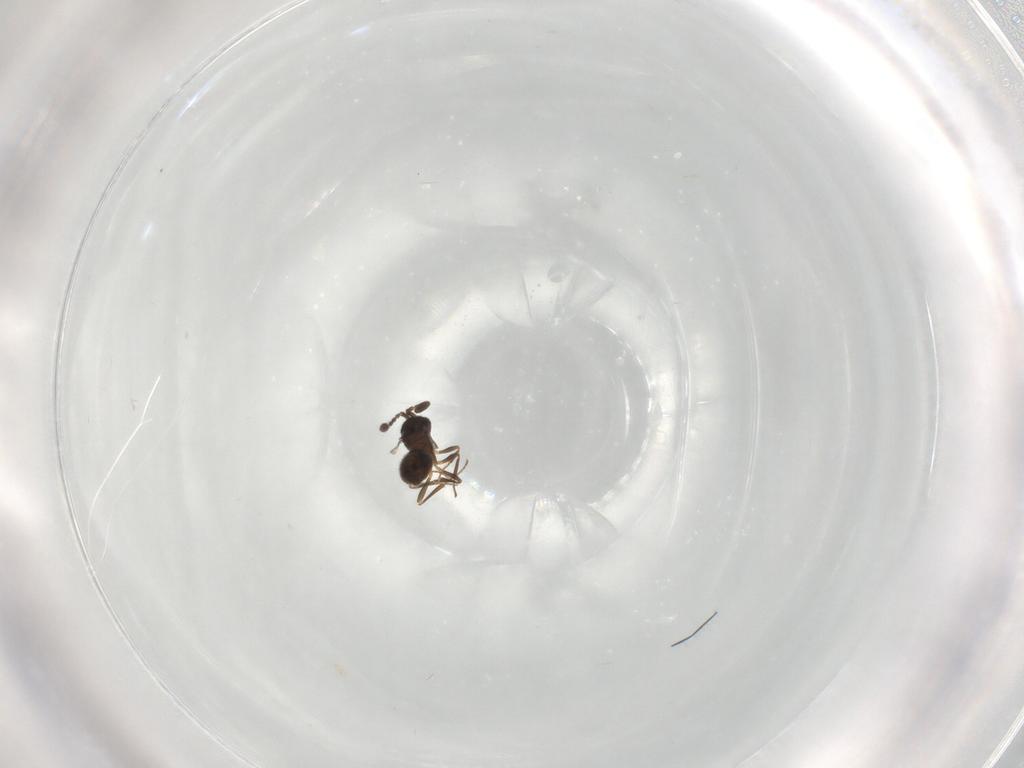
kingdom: Animalia
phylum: Arthropoda
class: Insecta
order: Hymenoptera
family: Scelionidae
